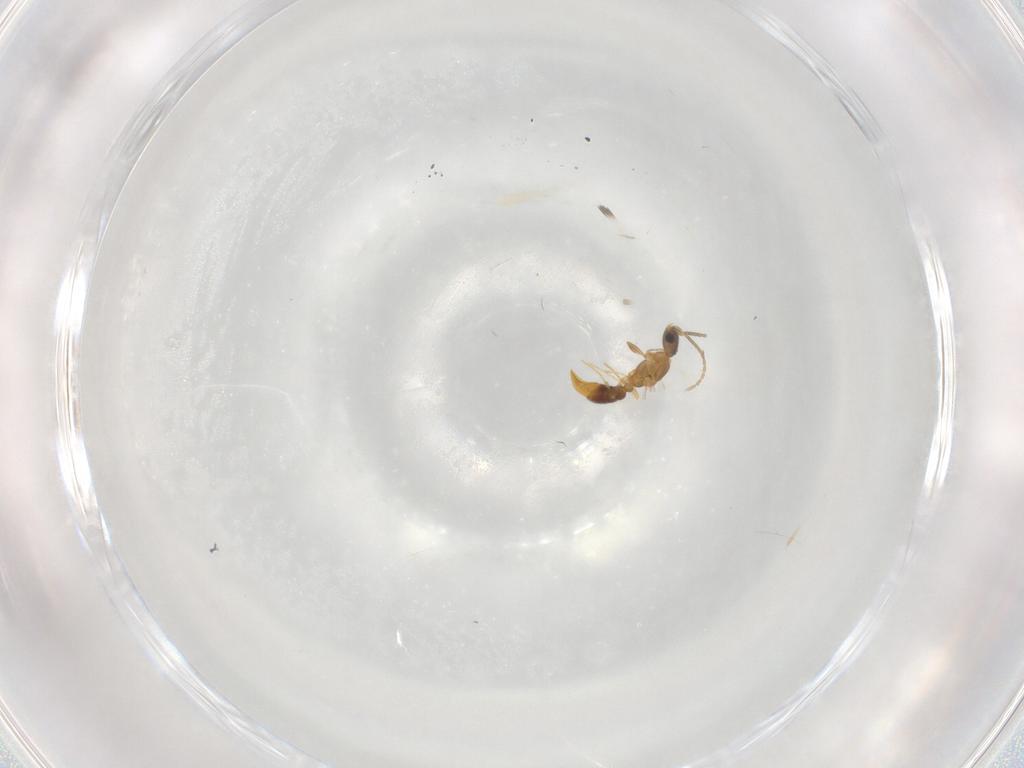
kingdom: Animalia
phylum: Arthropoda
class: Insecta
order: Hymenoptera
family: Formicidae
